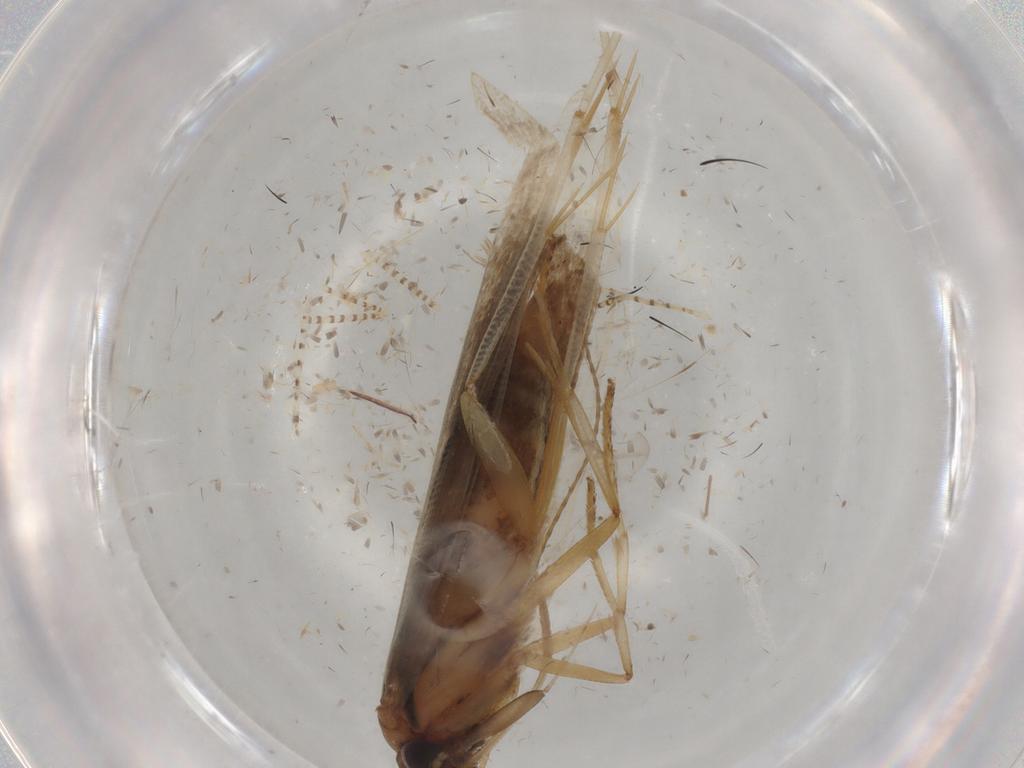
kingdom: Animalia
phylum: Arthropoda
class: Insecta
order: Lepidoptera
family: Gelechiidae
